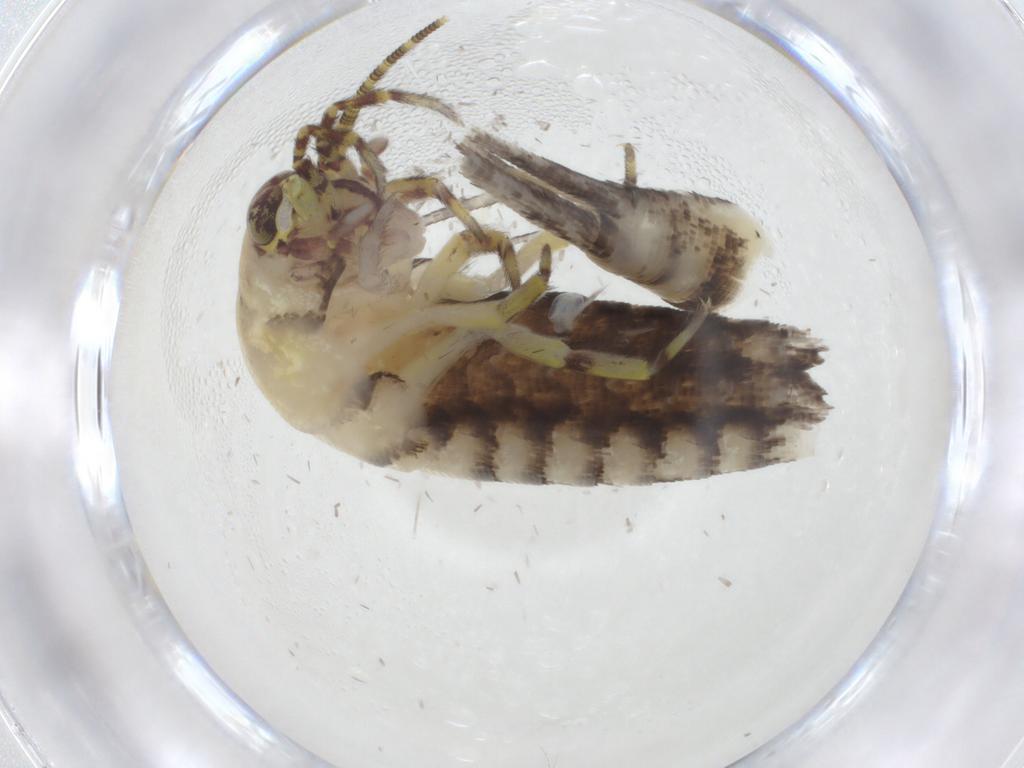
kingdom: Animalia
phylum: Arthropoda
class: Insecta
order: Archaeognatha
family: Machilidae
